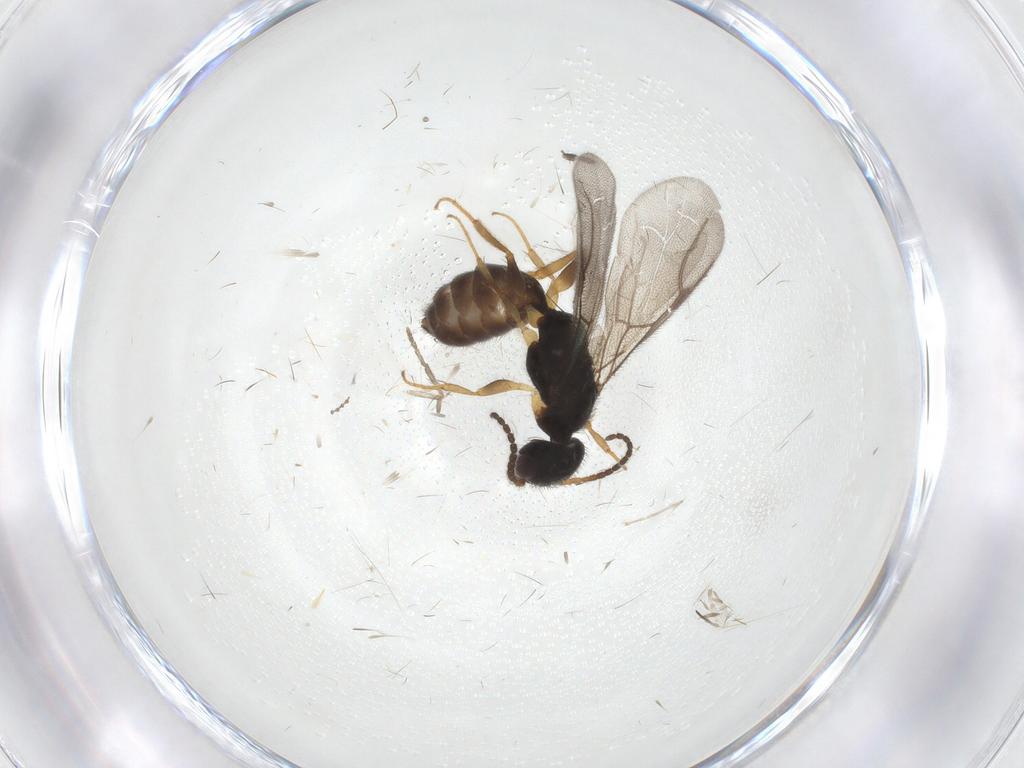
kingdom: Animalia
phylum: Arthropoda
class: Insecta
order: Hymenoptera
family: Bethylidae
